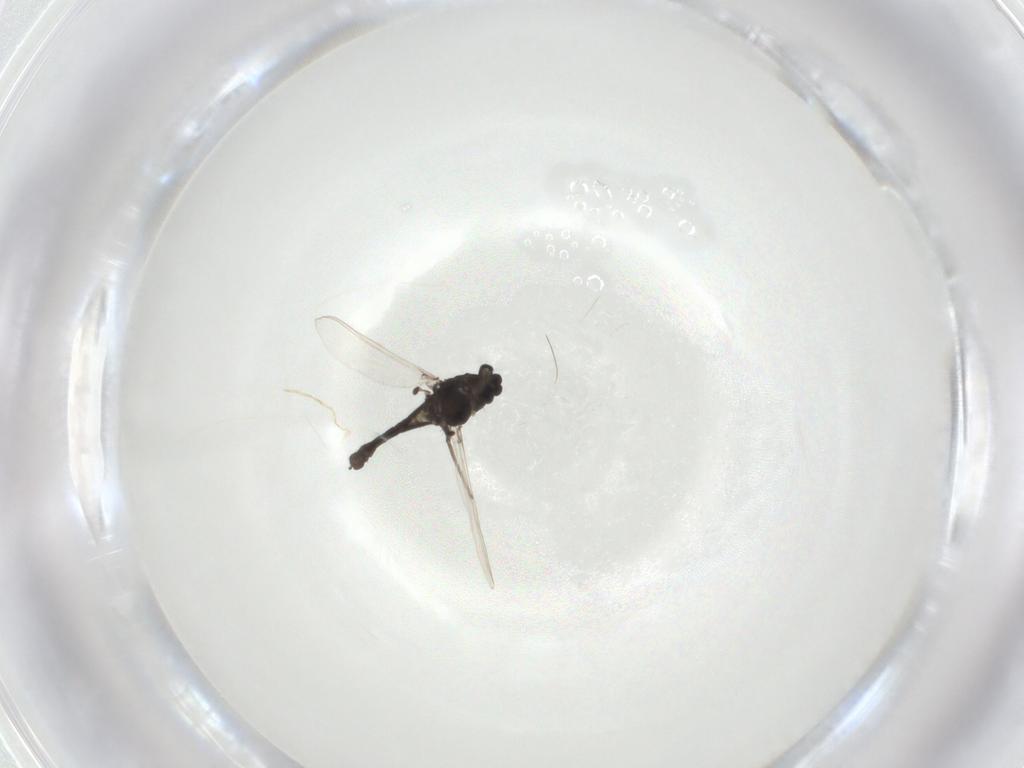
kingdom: Animalia
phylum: Arthropoda
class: Insecta
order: Diptera
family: Chironomidae
